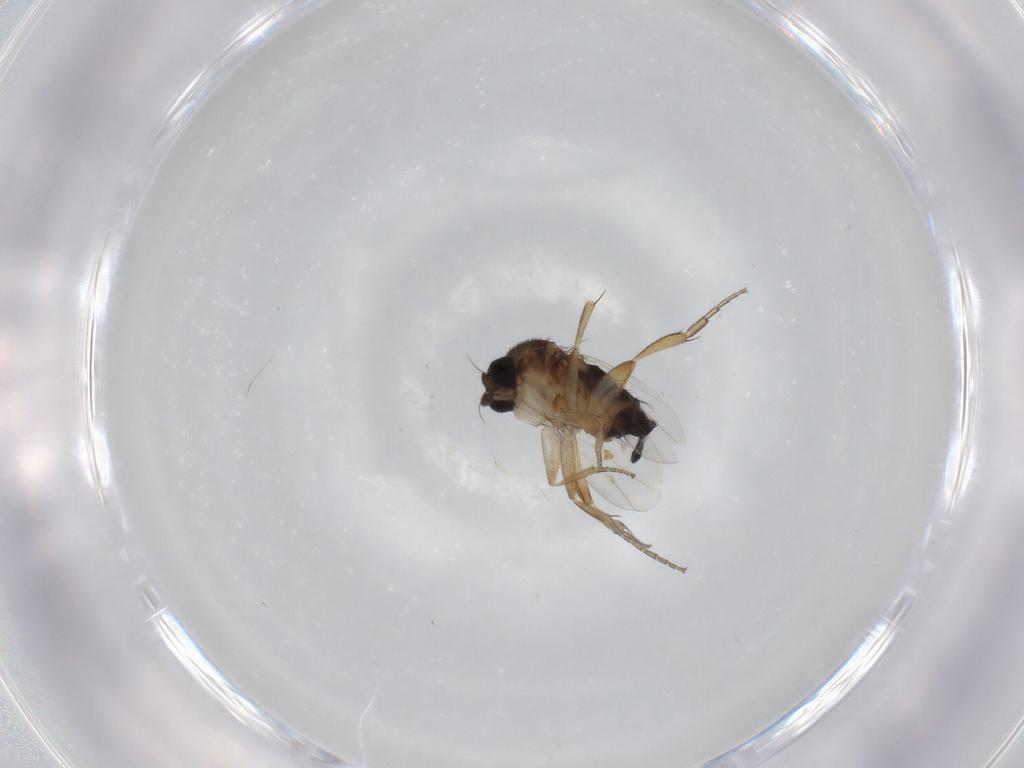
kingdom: Animalia
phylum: Arthropoda
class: Insecta
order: Diptera
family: Phoridae
